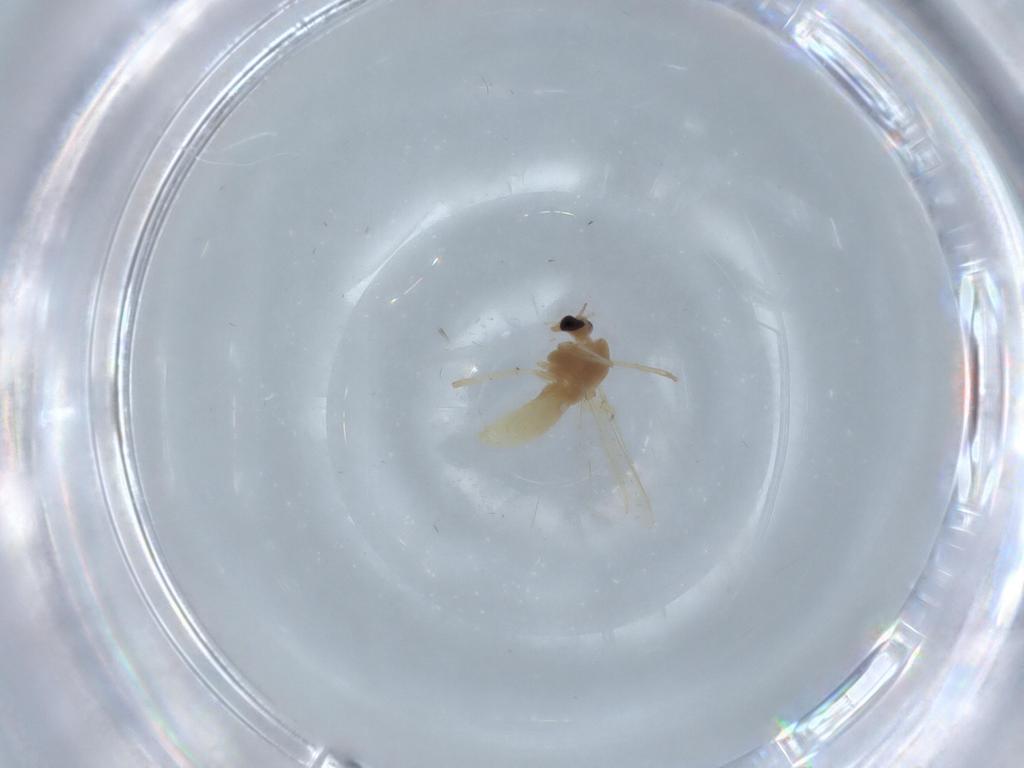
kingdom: Animalia
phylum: Arthropoda
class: Insecta
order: Diptera
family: Chironomidae
